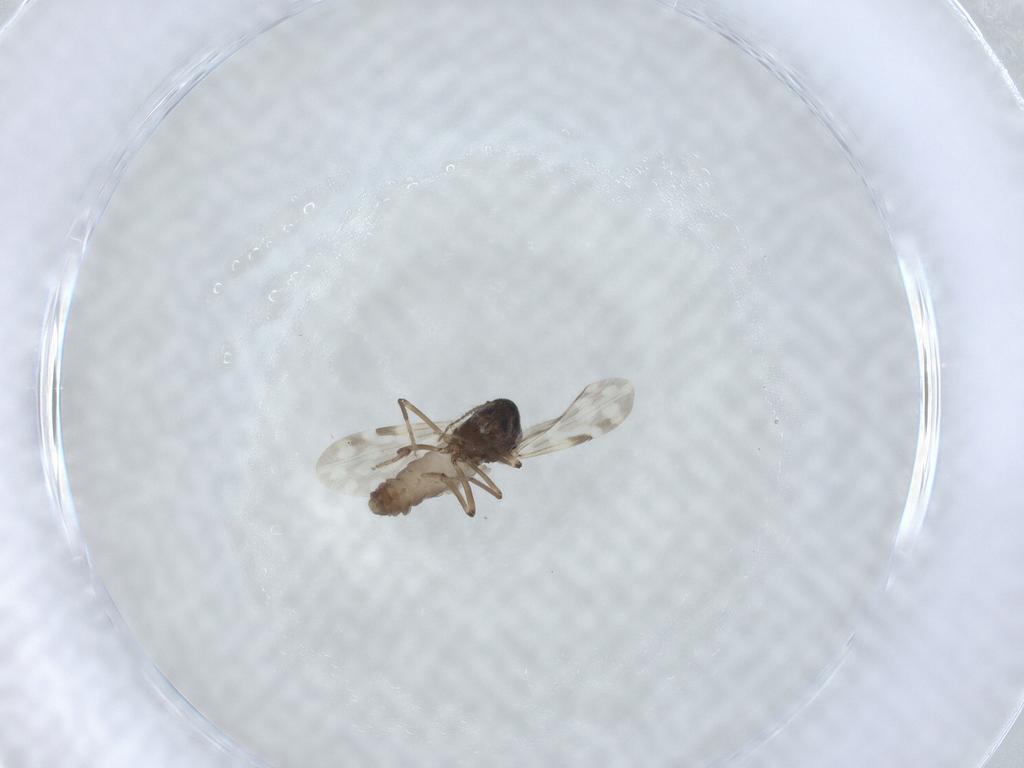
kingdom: Animalia
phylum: Arthropoda
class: Insecta
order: Diptera
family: Ceratopogonidae
